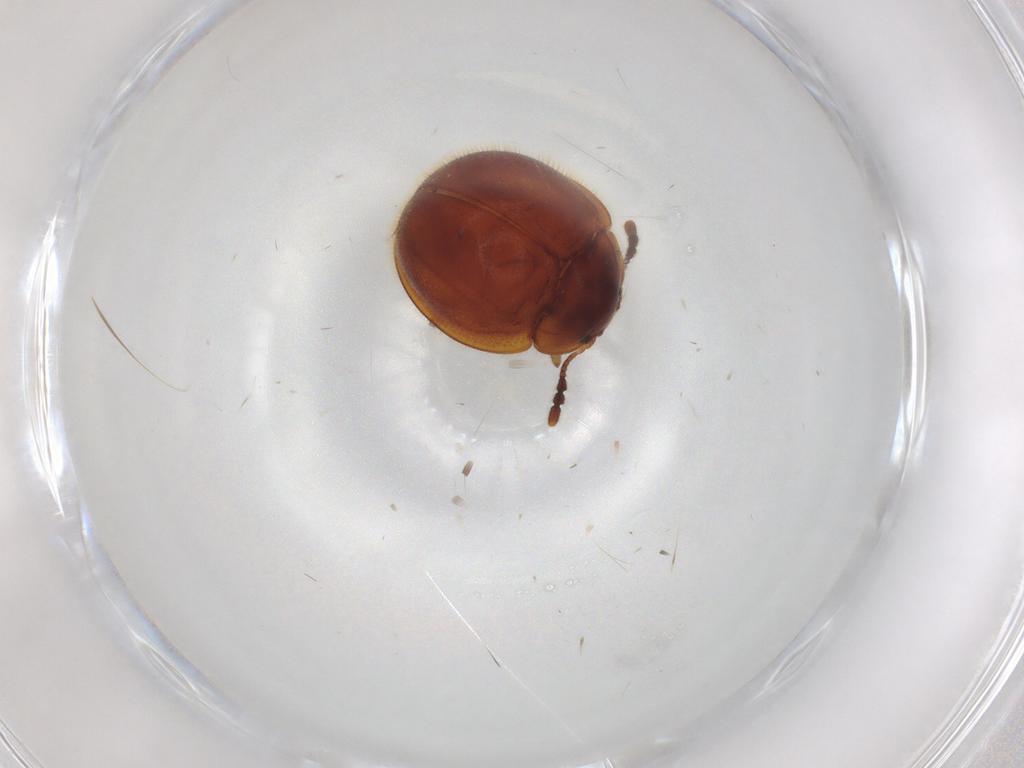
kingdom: Animalia
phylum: Arthropoda
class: Insecta
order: Coleoptera
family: Anamorphidae
